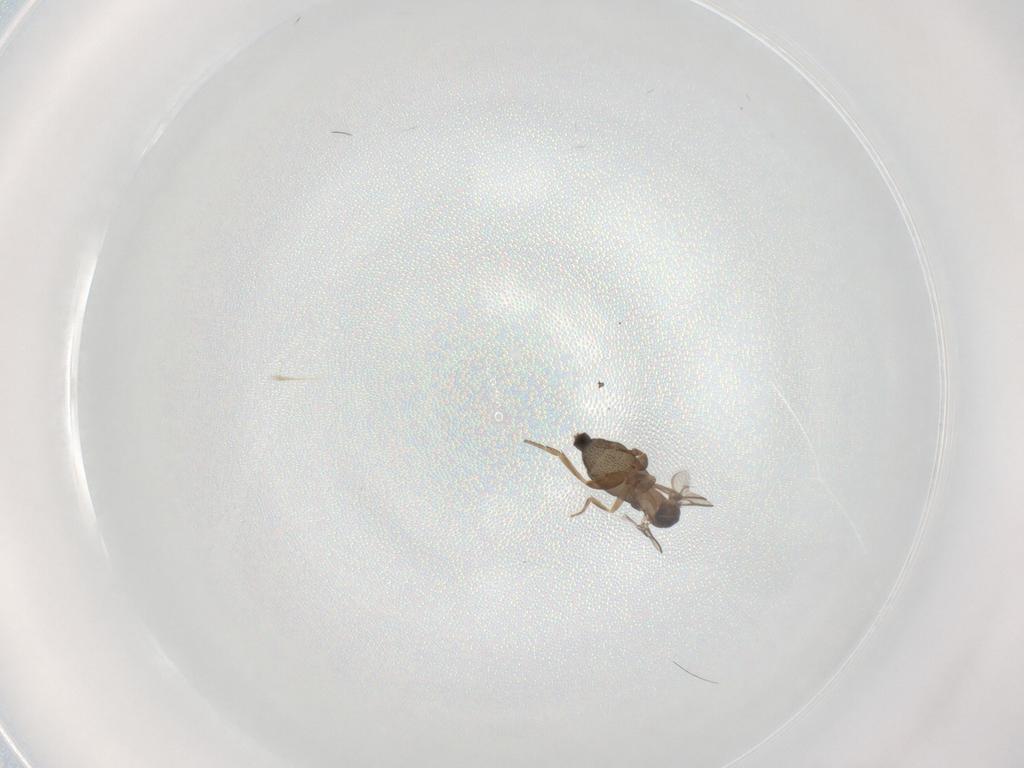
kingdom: Animalia
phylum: Arthropoda
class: Insecta
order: Diptera
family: Phoridae
